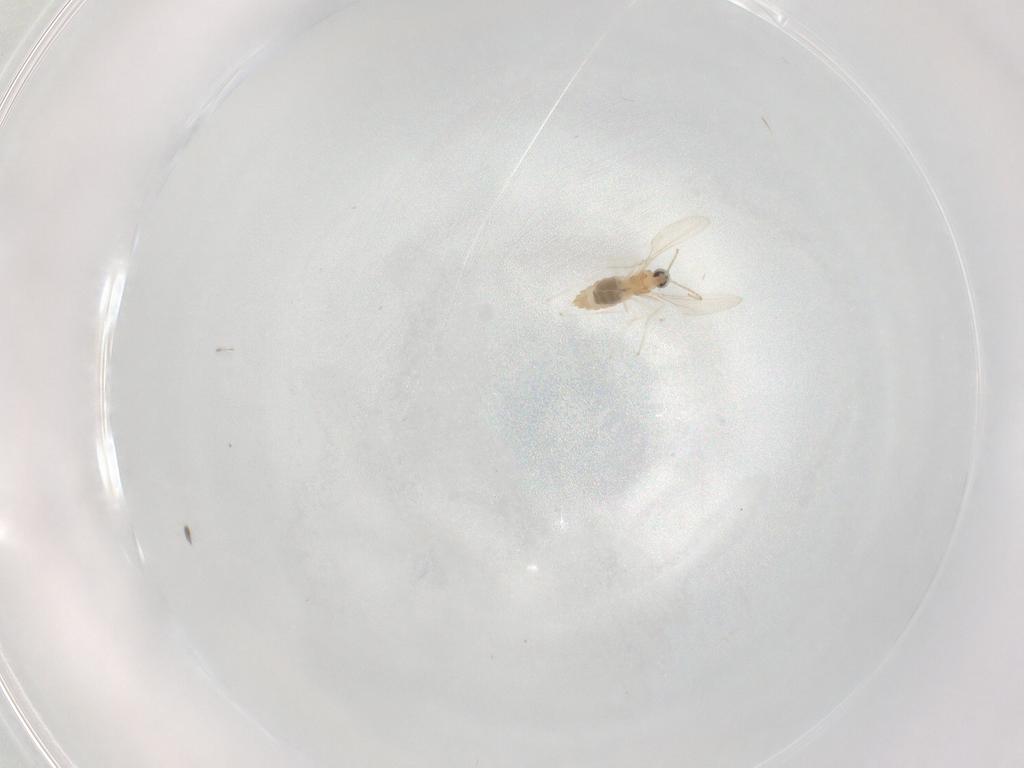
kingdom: Animalia
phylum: Arthropoda
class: Insecta
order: Diptera
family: Cecidomyiidae
